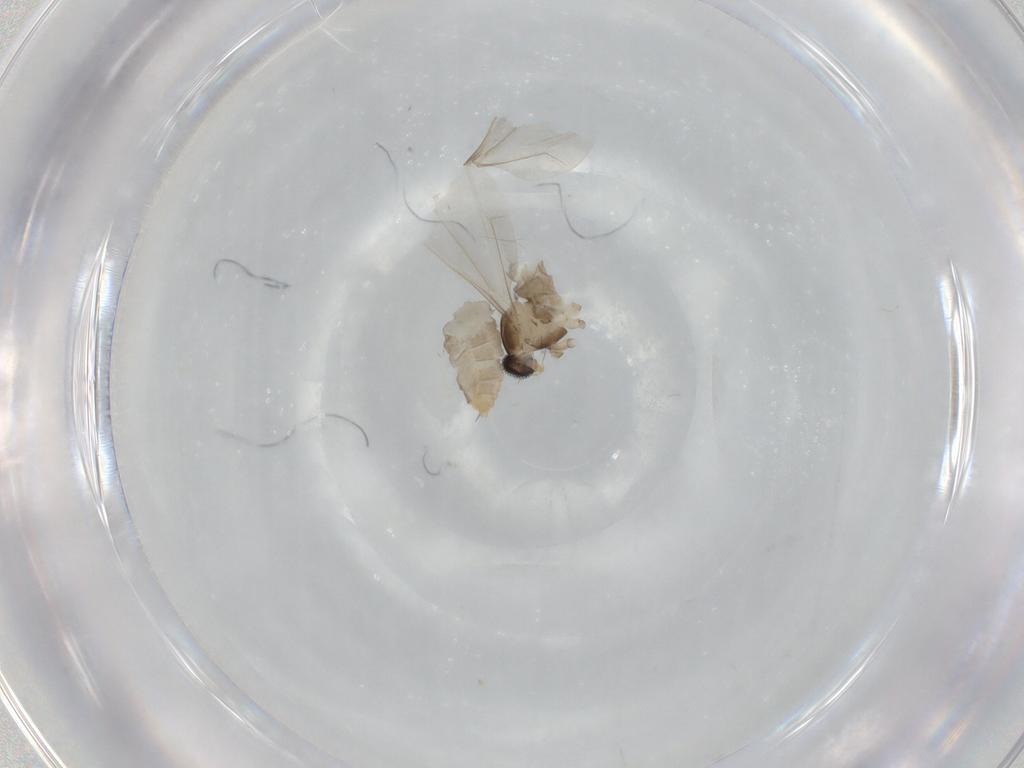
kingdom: Animalia
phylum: Arthropoda
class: Insecta
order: Diptera
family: Cecidomyiidae
